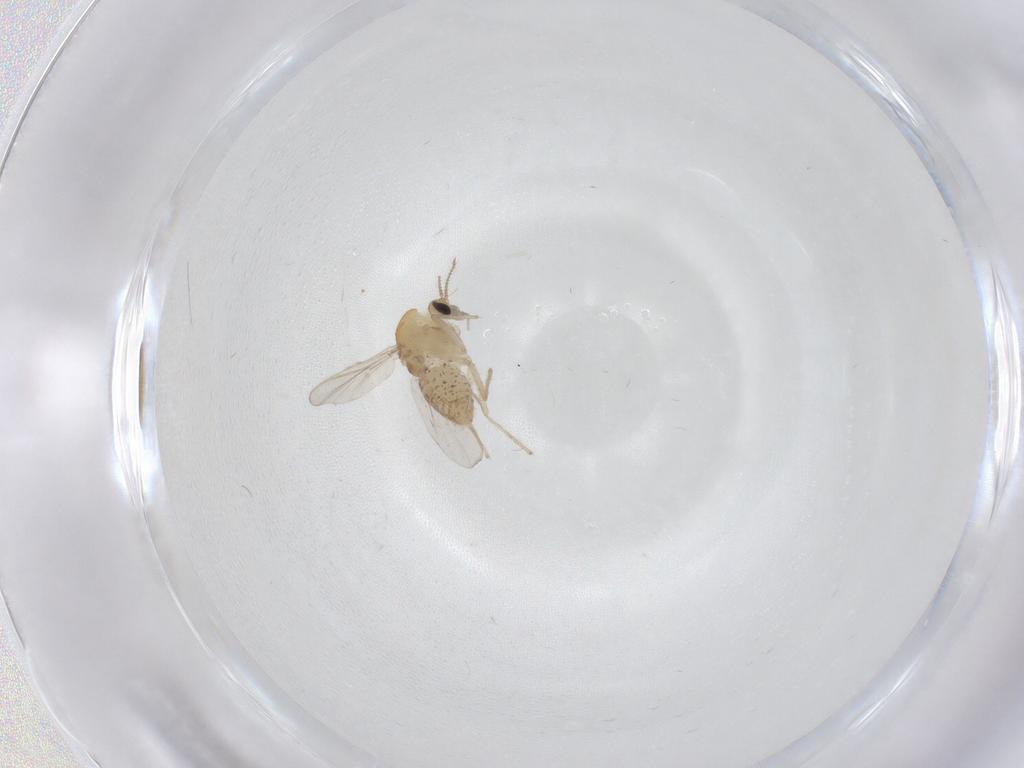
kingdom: Animalia
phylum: Arthropoda
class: Insecta
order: Diptera
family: Chironomidae
